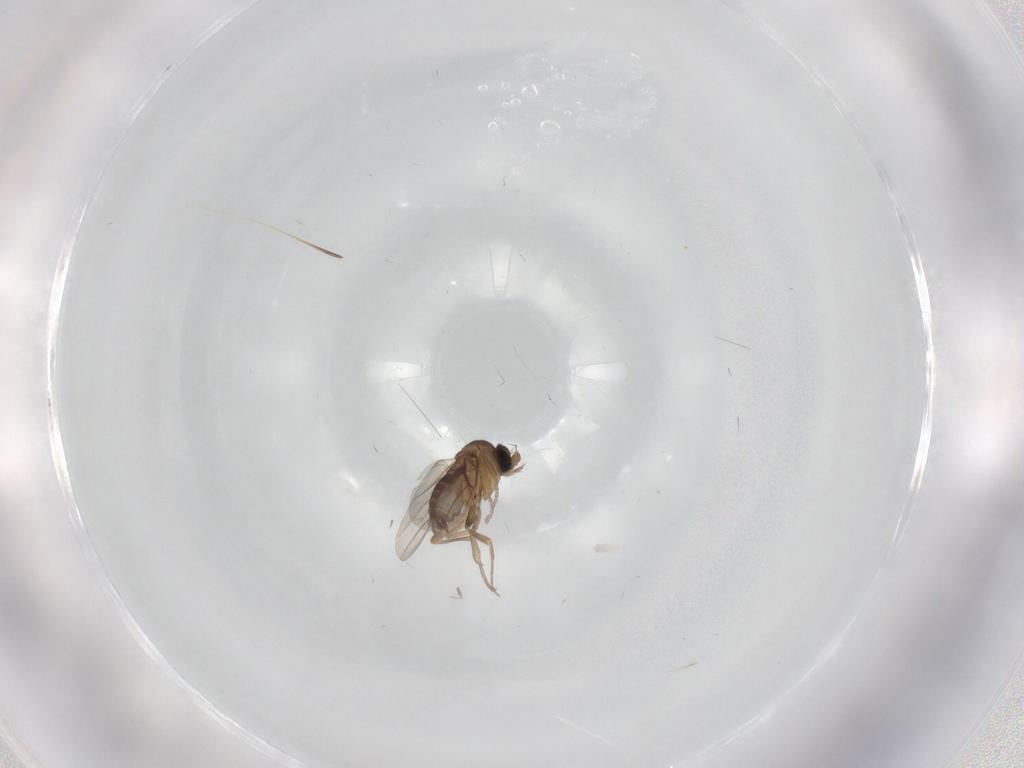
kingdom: Animalia
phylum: Arthropoda
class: Insecta
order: Diptera
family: Phoridae
